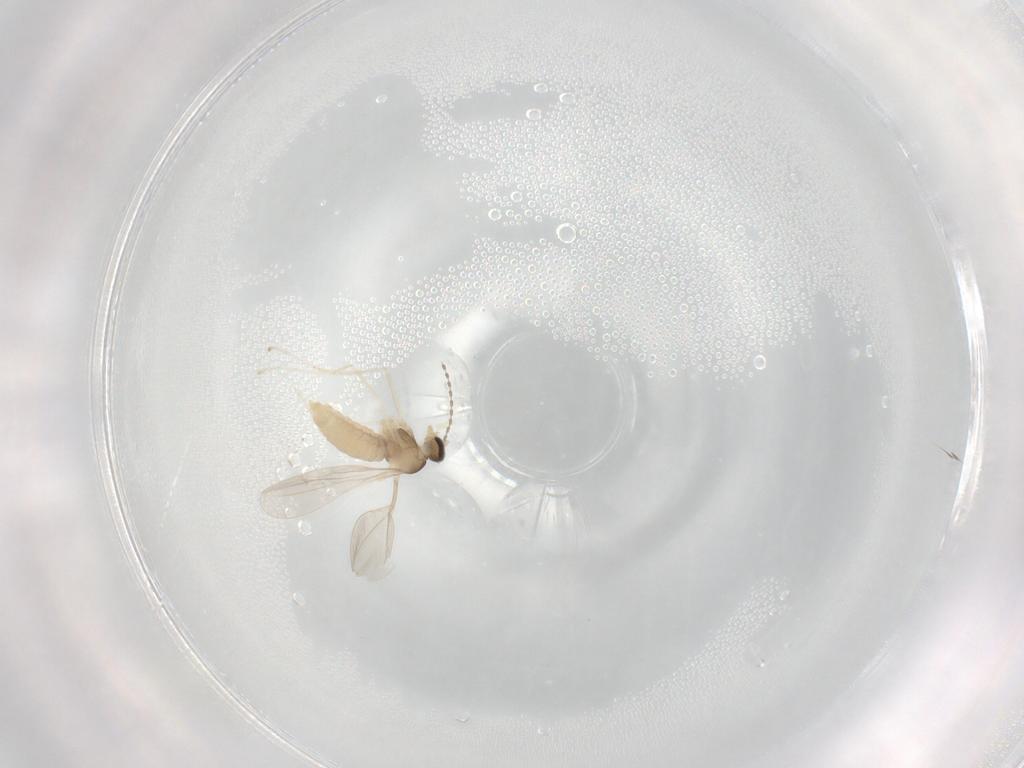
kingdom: Animalia
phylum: Arthropoda
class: Insecta
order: Diptera
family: Cecidomyiidae
